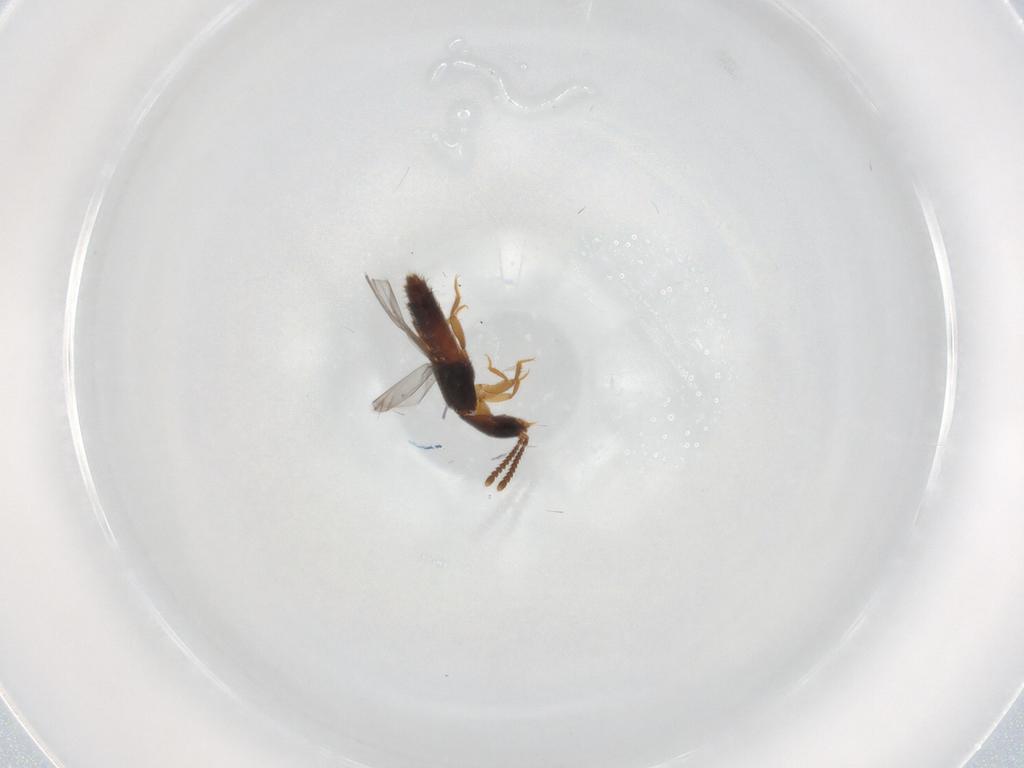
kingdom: Animalia
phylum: Arthropoda
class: Insecta
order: Coleoptera
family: Staphylinidae
